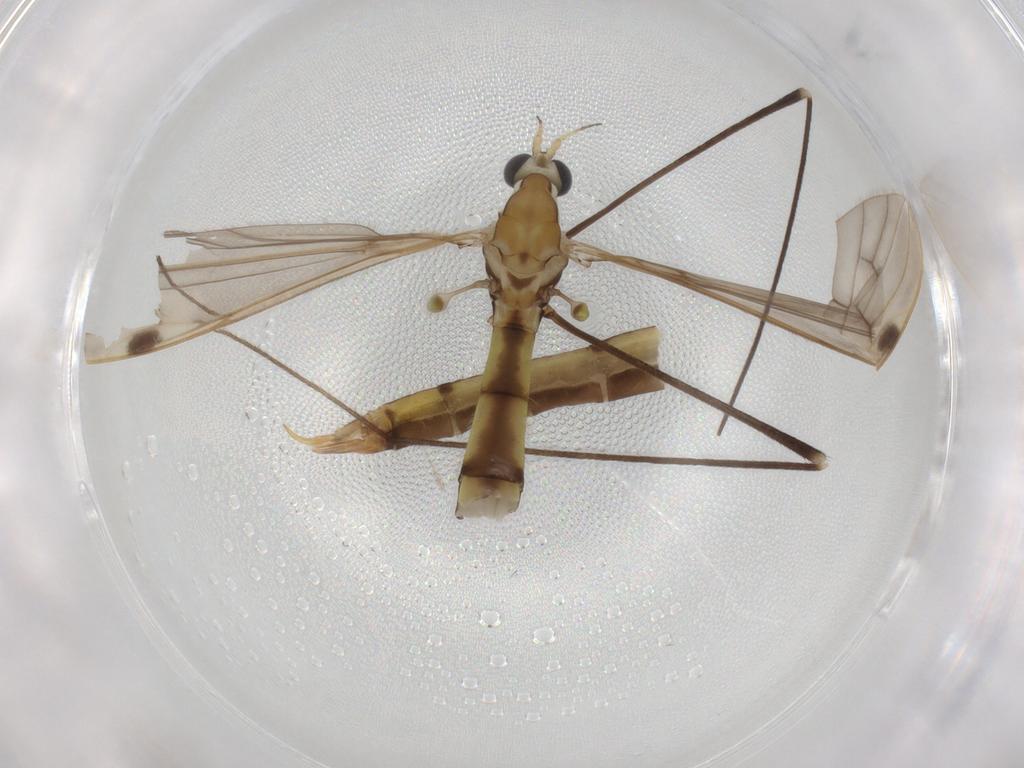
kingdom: Animalia
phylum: Arthropoda
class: Insecta
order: Diptera
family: Limoniidae
